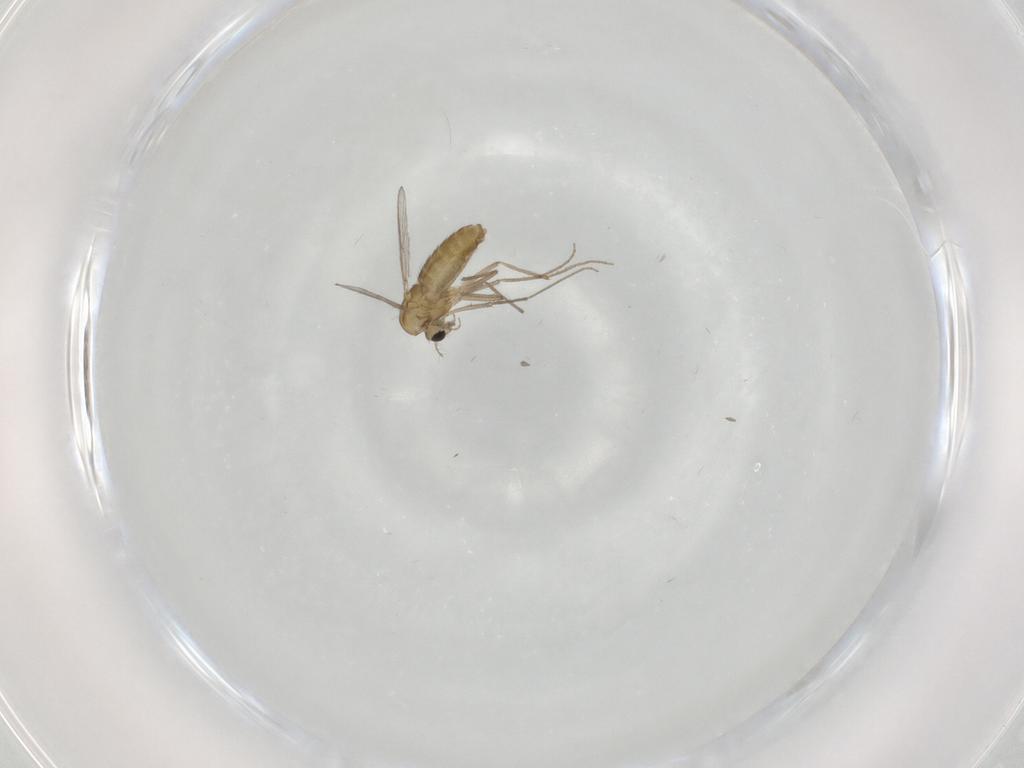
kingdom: Animalia
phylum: Arthropoda
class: Insecta
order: Diptera
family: Chironomidae
